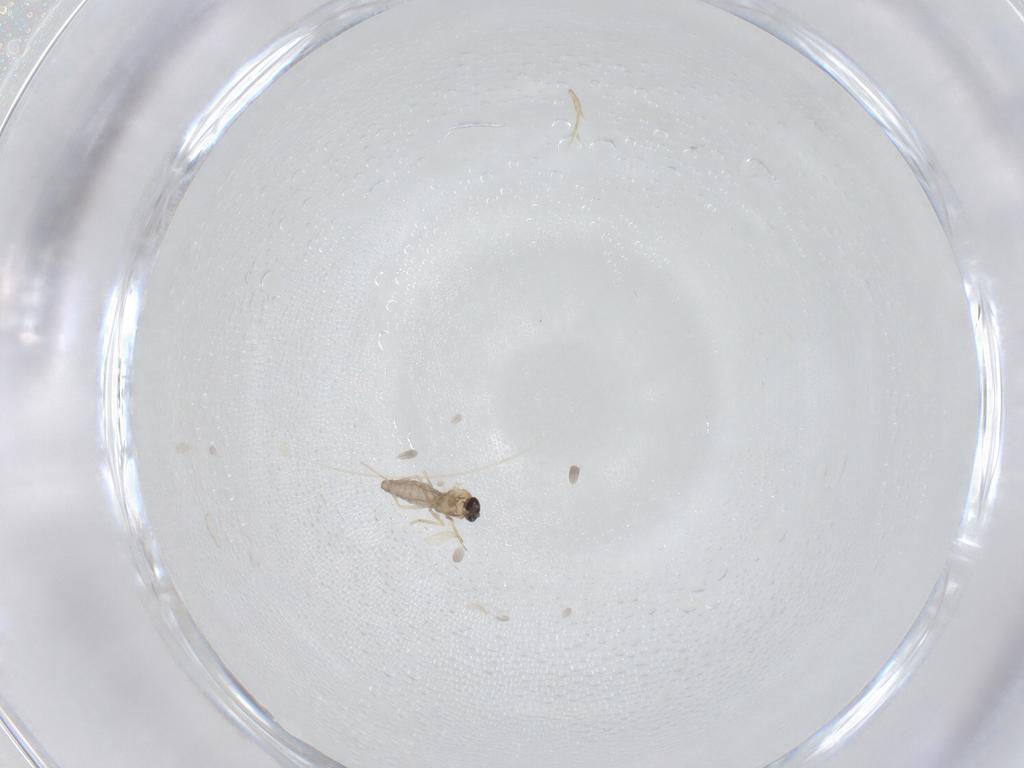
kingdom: Animalia
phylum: Arthropoda
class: Insecta
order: Diptera
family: Ceratopogonidae
